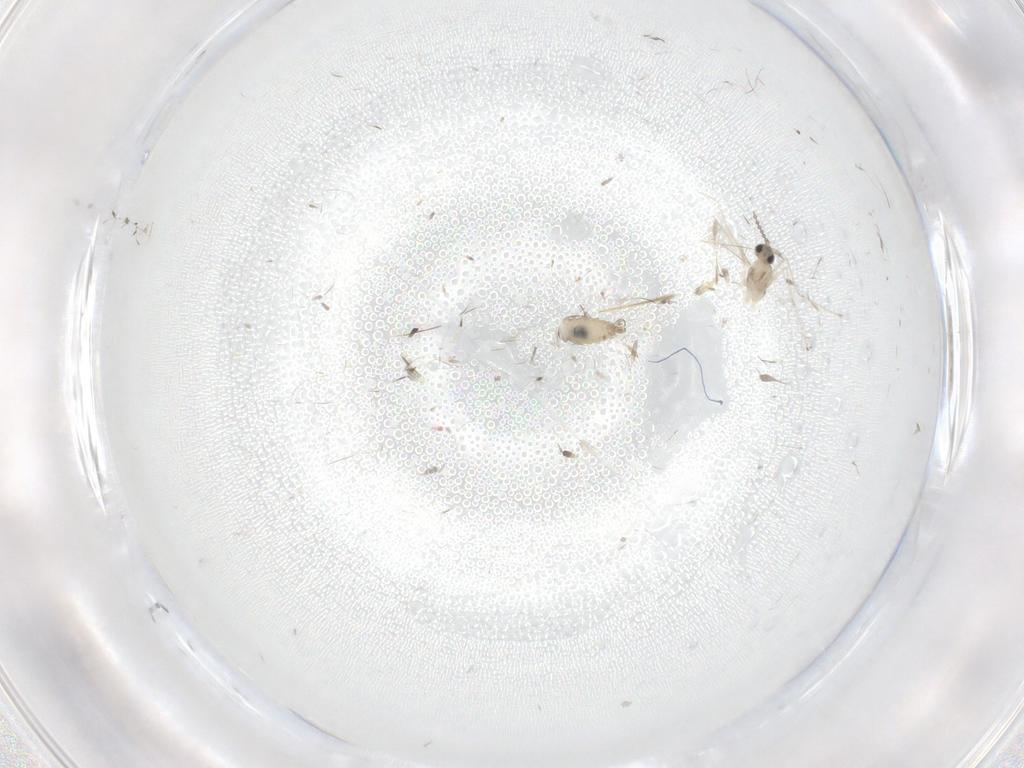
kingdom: Animalia
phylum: Arthropoda
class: Insecta
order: Diptera
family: Cecidomyiidae
